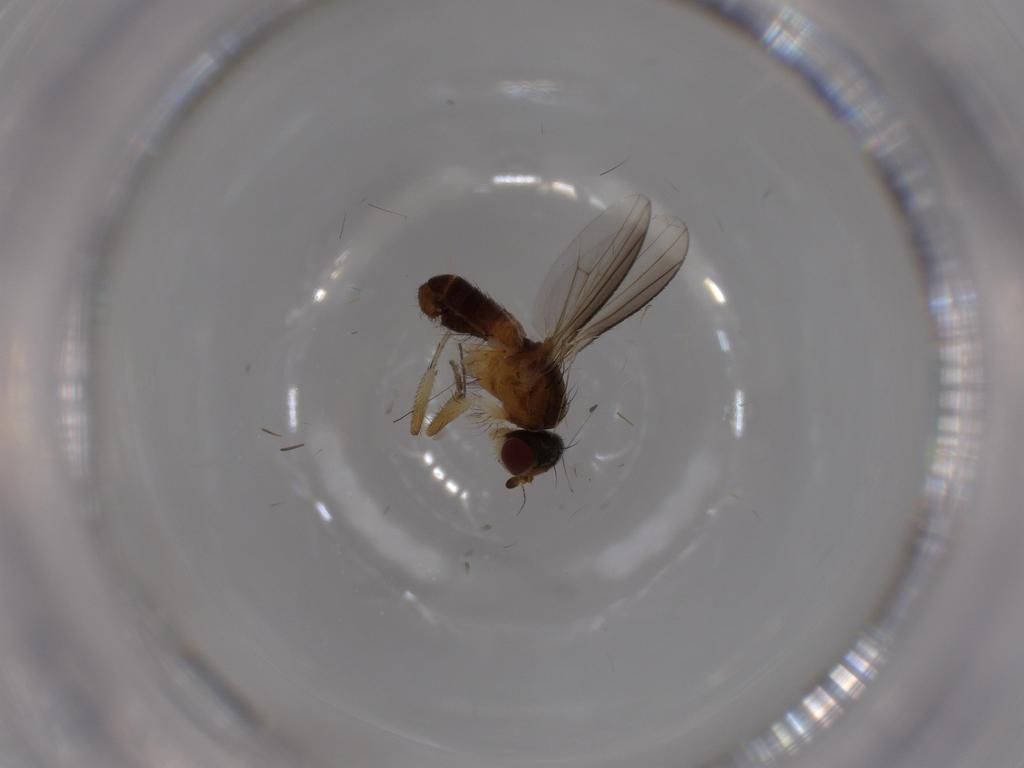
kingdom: Animalia
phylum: Arthropoda
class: Insecta
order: Diptera
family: Heleomyzidae
